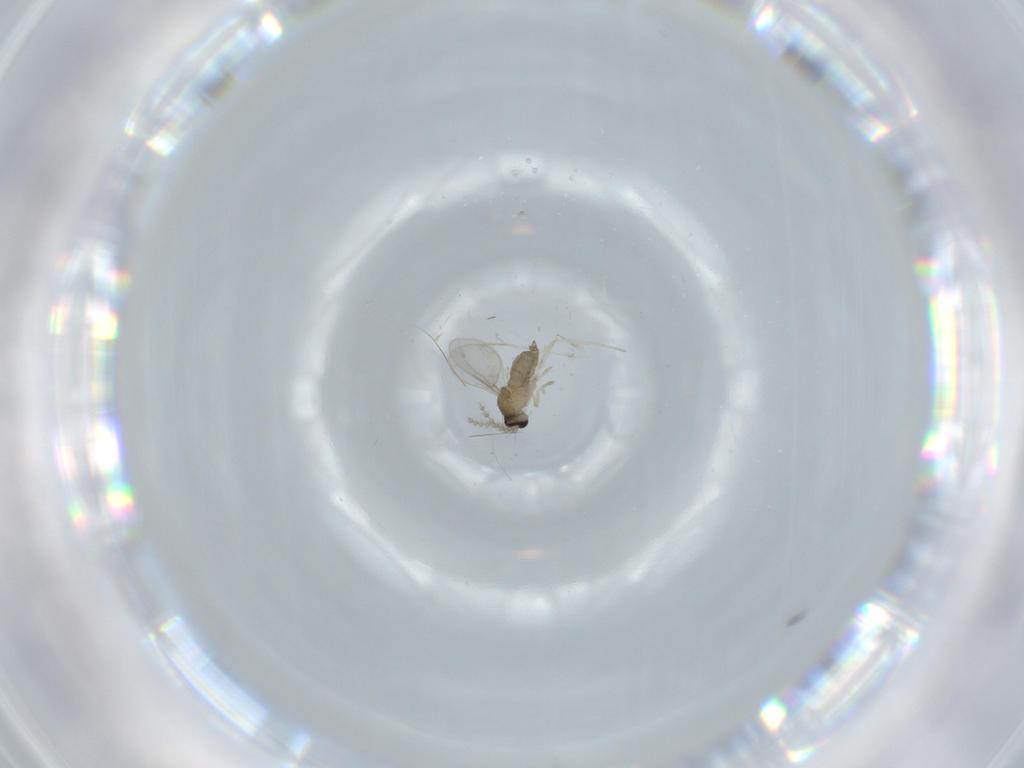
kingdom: Animalia
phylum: Arthropoda
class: Insecta
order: Diptera
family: Cecidomyiidae
